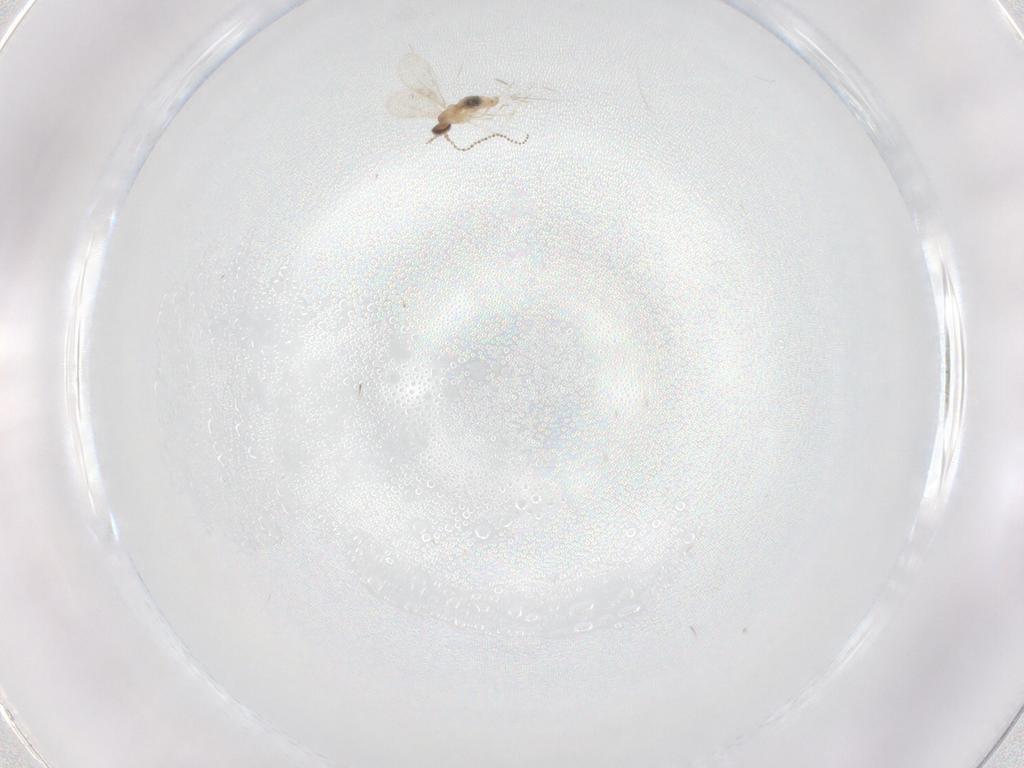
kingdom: Animalia
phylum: Arthropoda
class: Insecta
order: Diptera
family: Cecidomyiidae
